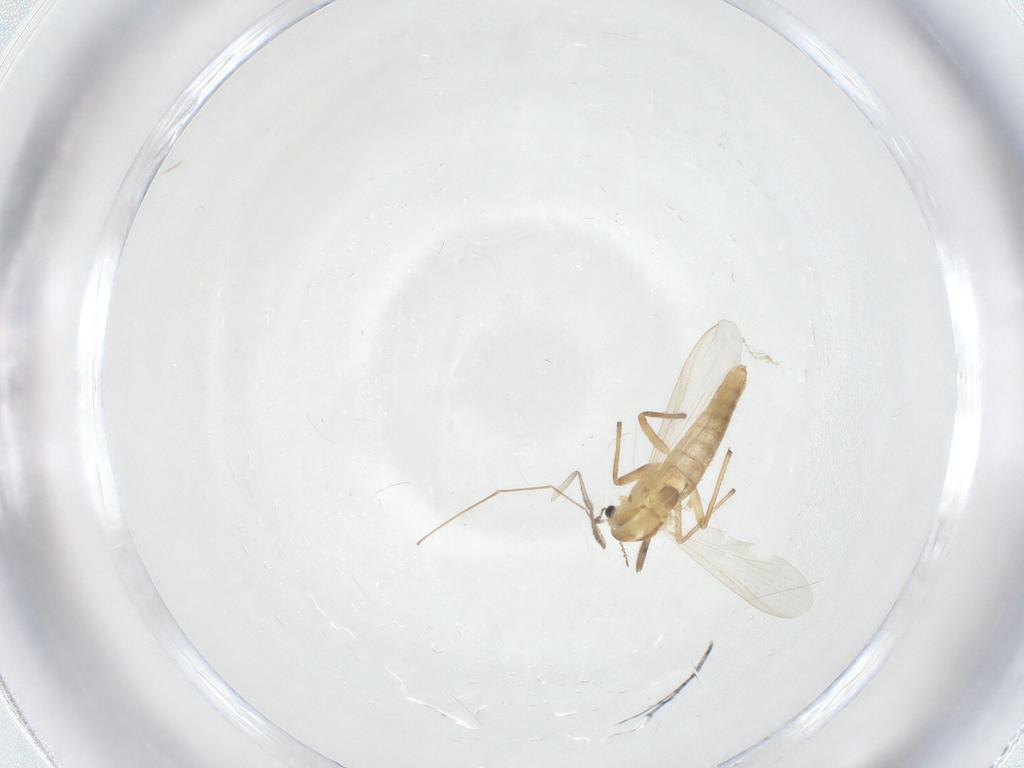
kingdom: Animalia
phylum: Arthropoda
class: Insecta
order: Diptera
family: Chironomidae
